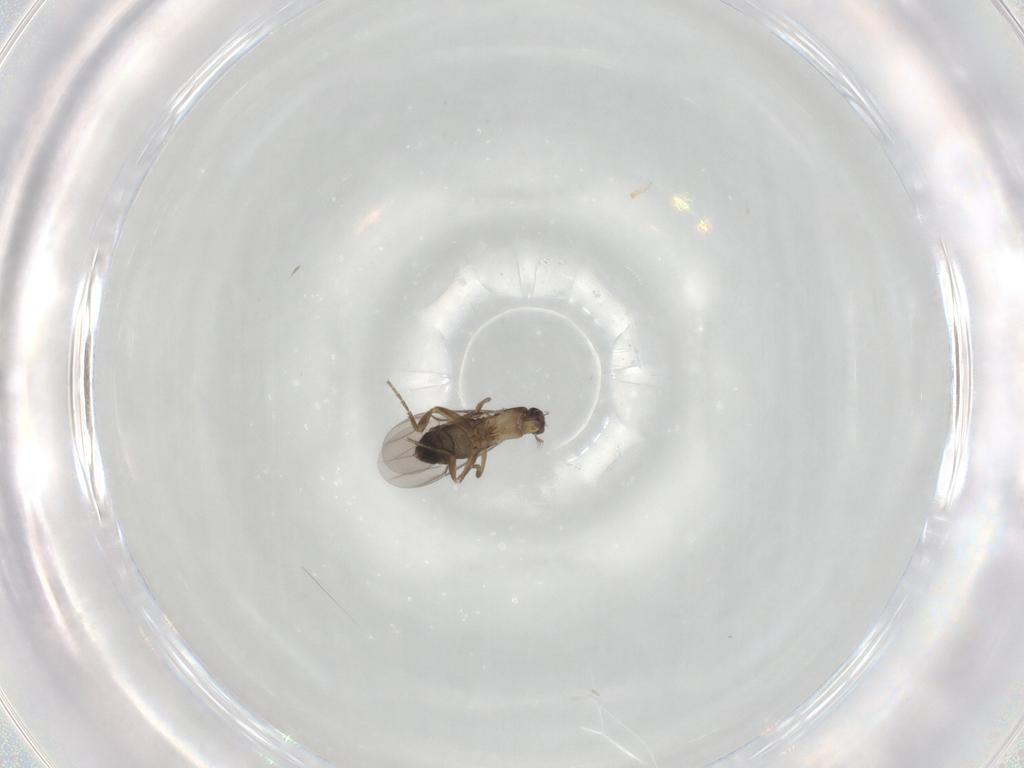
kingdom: Animalia
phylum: Arthropoda
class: Insecta
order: Diptera
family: Phoridae
